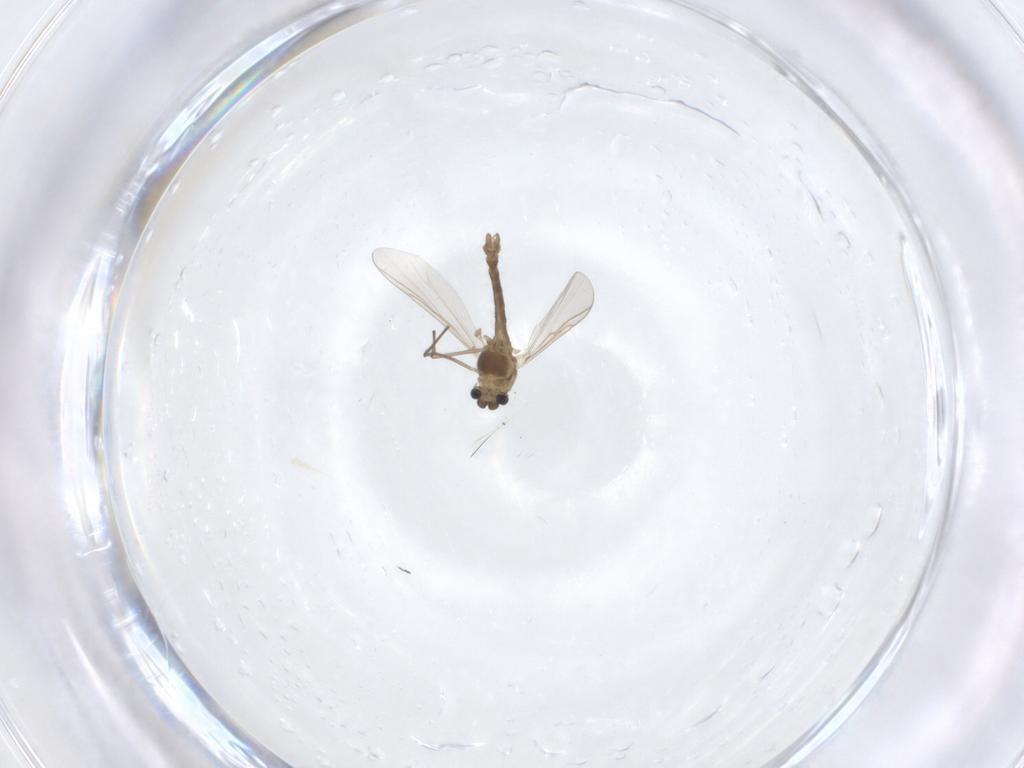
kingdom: Animalia
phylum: Arthropoda
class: Insecta
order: Diptera
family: Chironomidae
